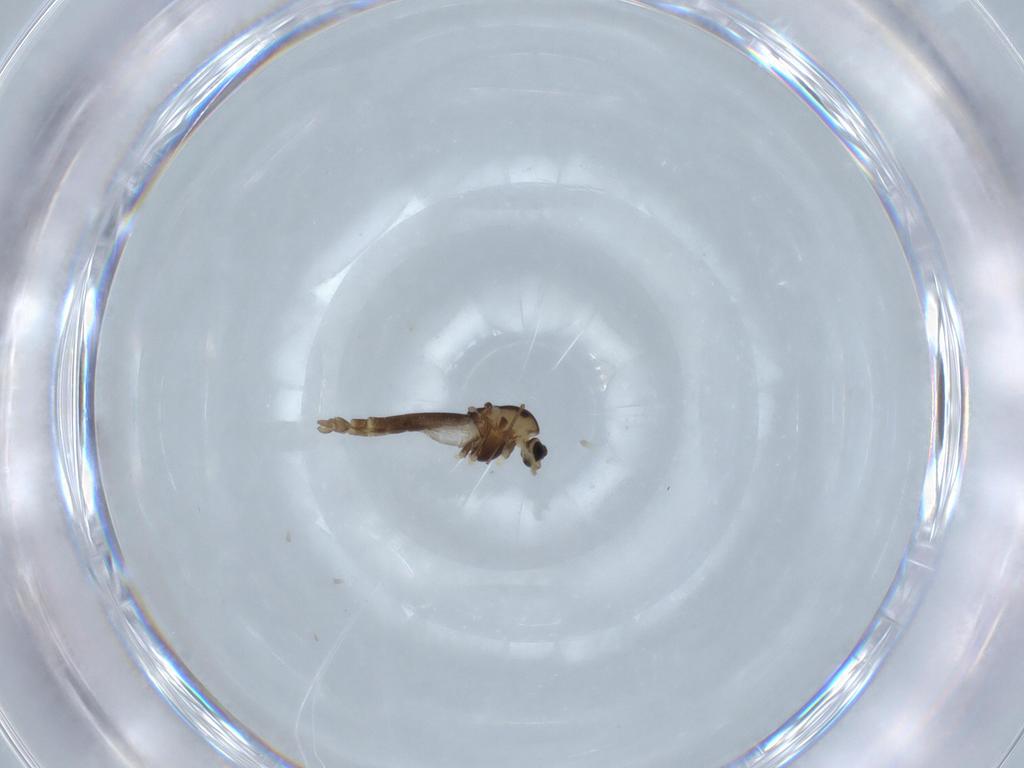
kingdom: Animalia
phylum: Arthropoda
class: Insecta
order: Diptera
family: Chironomidae
